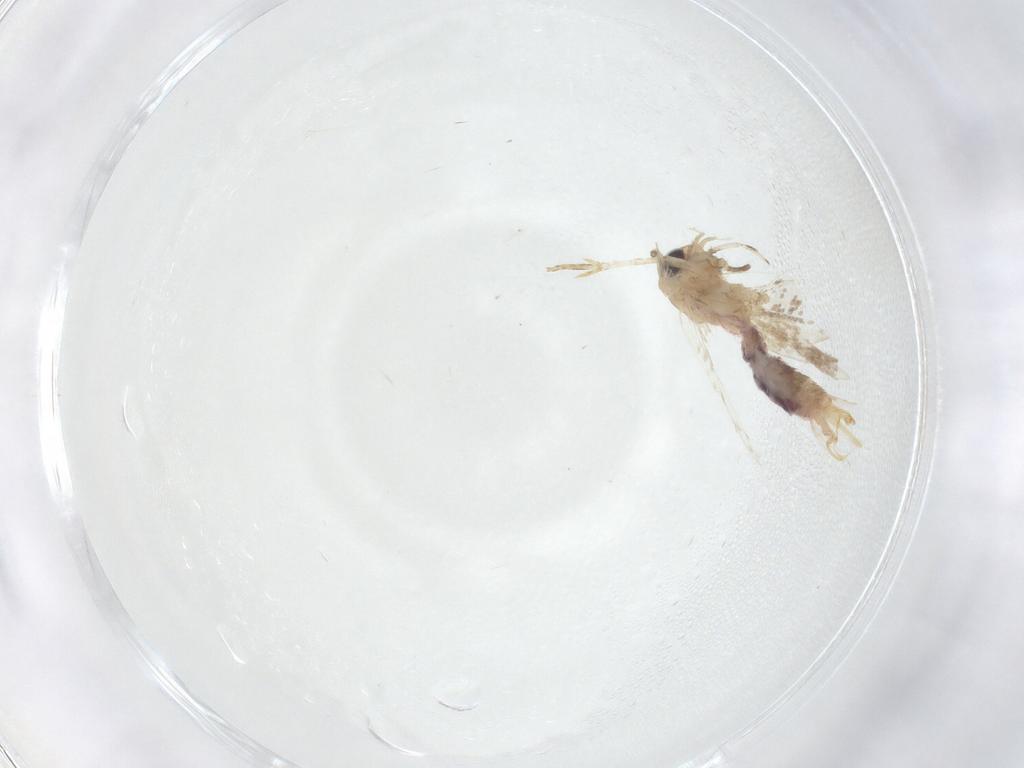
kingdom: Animalia
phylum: Arthropoda
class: Insecta
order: Lepidoptera
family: Gelechiidae
